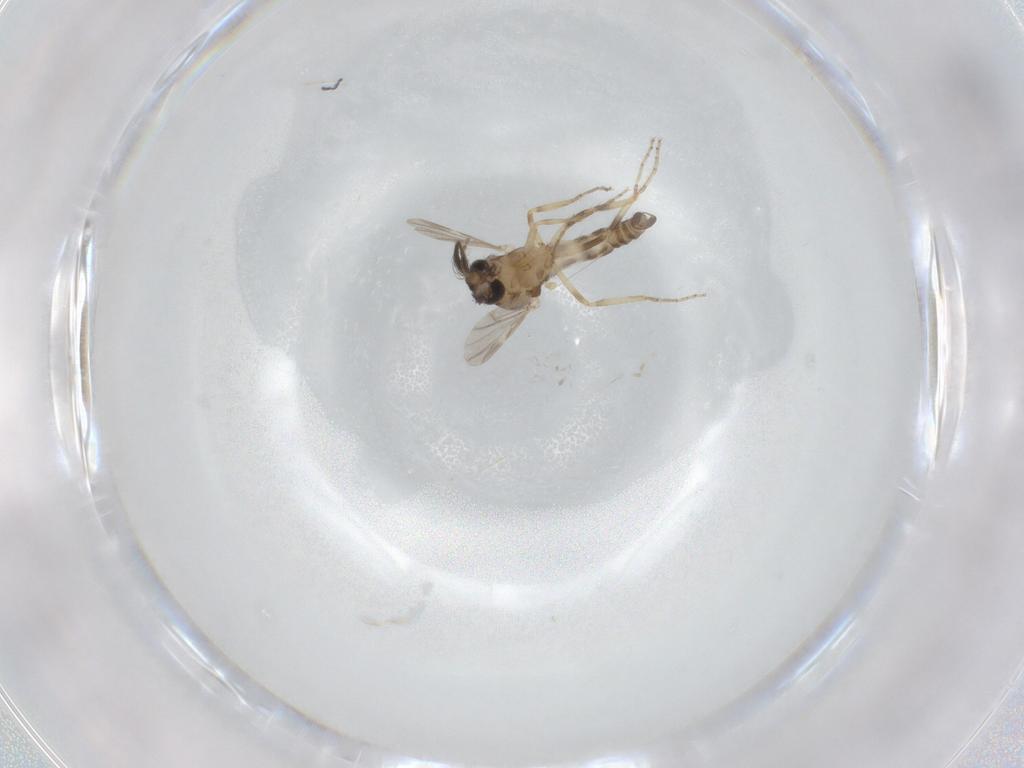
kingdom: Animalia
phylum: Arthropoda
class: Insecta
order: Diptera
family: Ceratopogonidae
